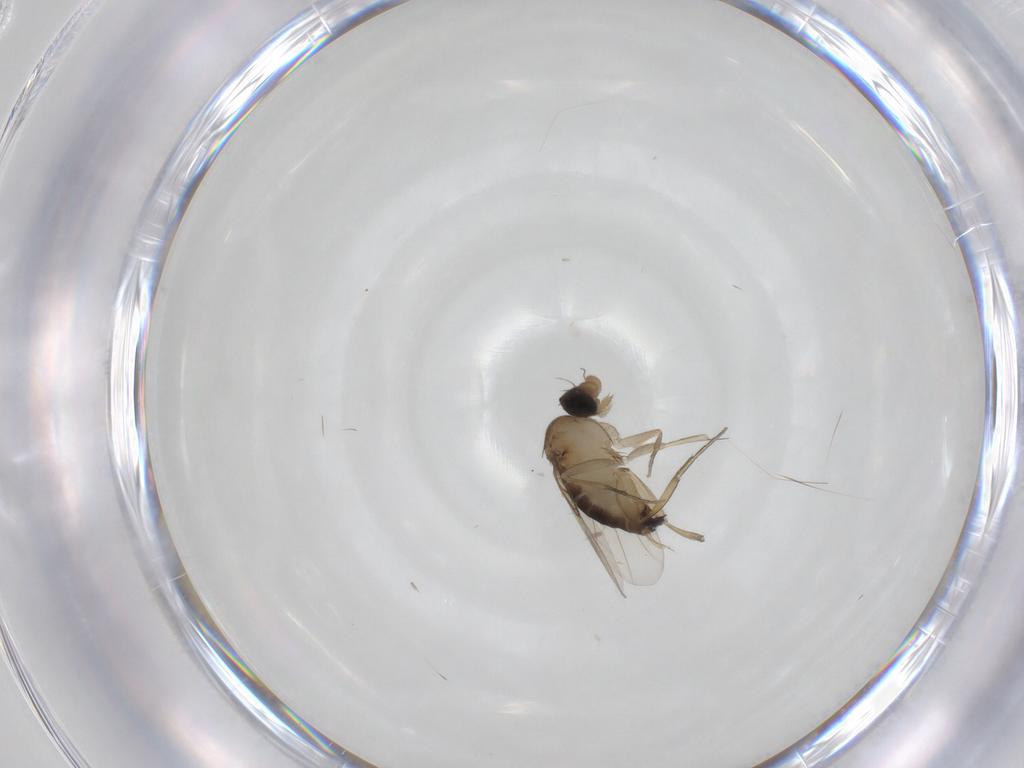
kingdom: Animalia
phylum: Arthropoda
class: Insecta
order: Diptera
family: Phoridae
